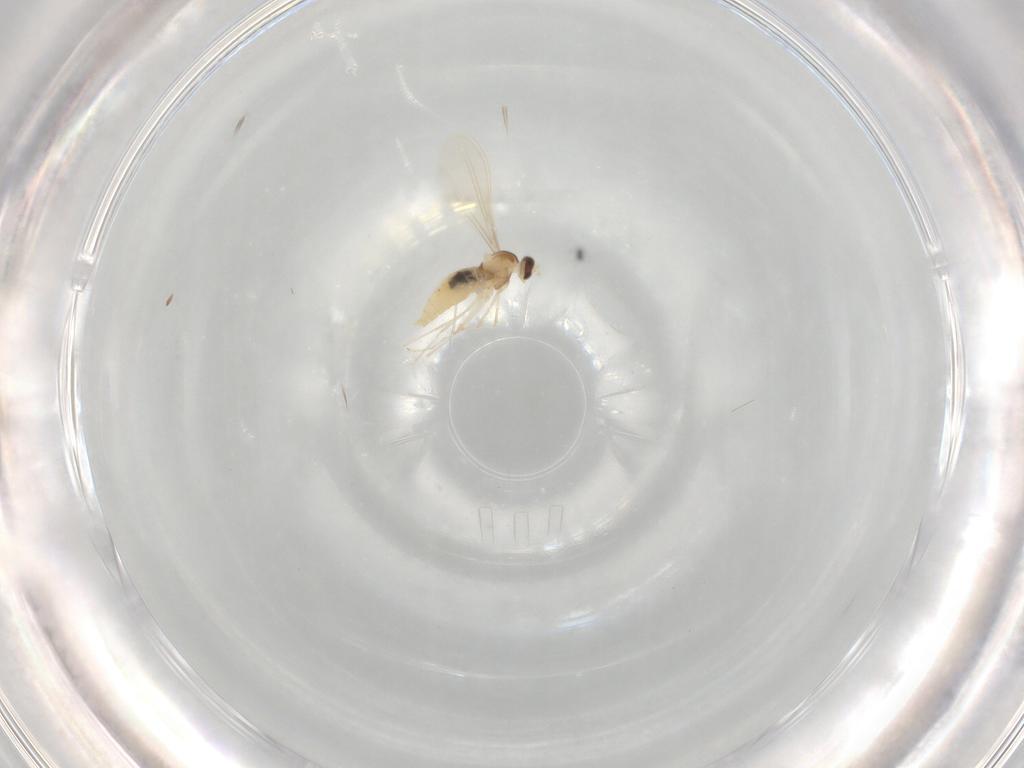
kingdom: Animalia
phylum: Arthropoda
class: Insecta
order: Diptera
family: Cecidomyiidae
